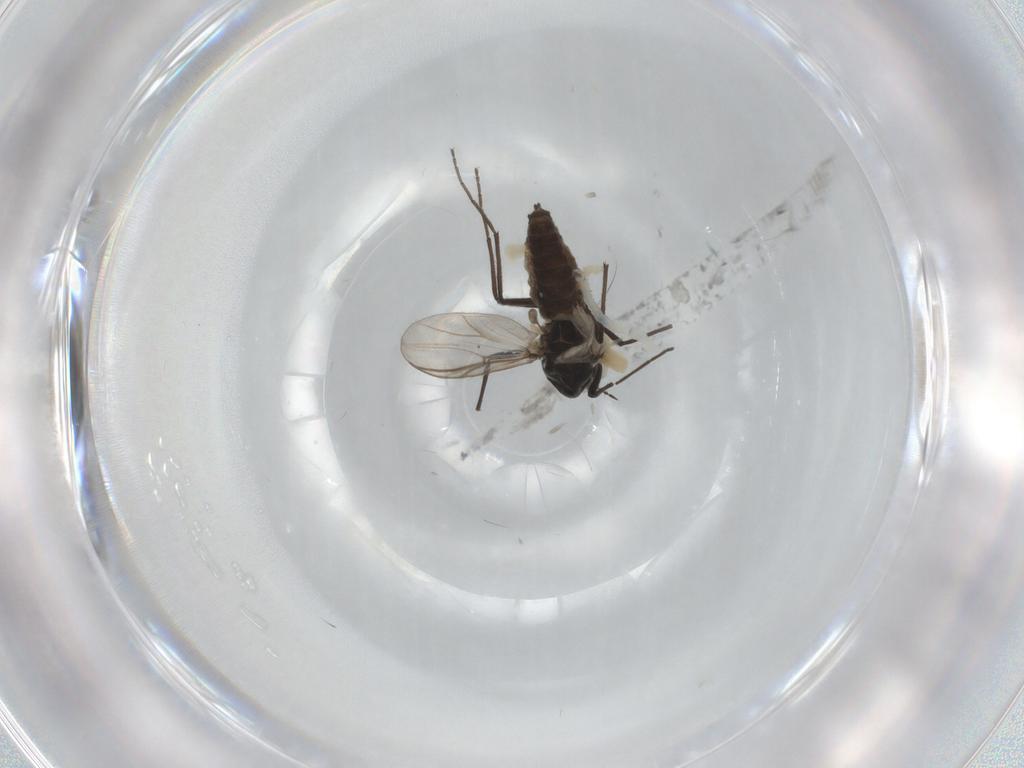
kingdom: Animalia
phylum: Arthropoda
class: Insecta
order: Diptera
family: Chironomidae
